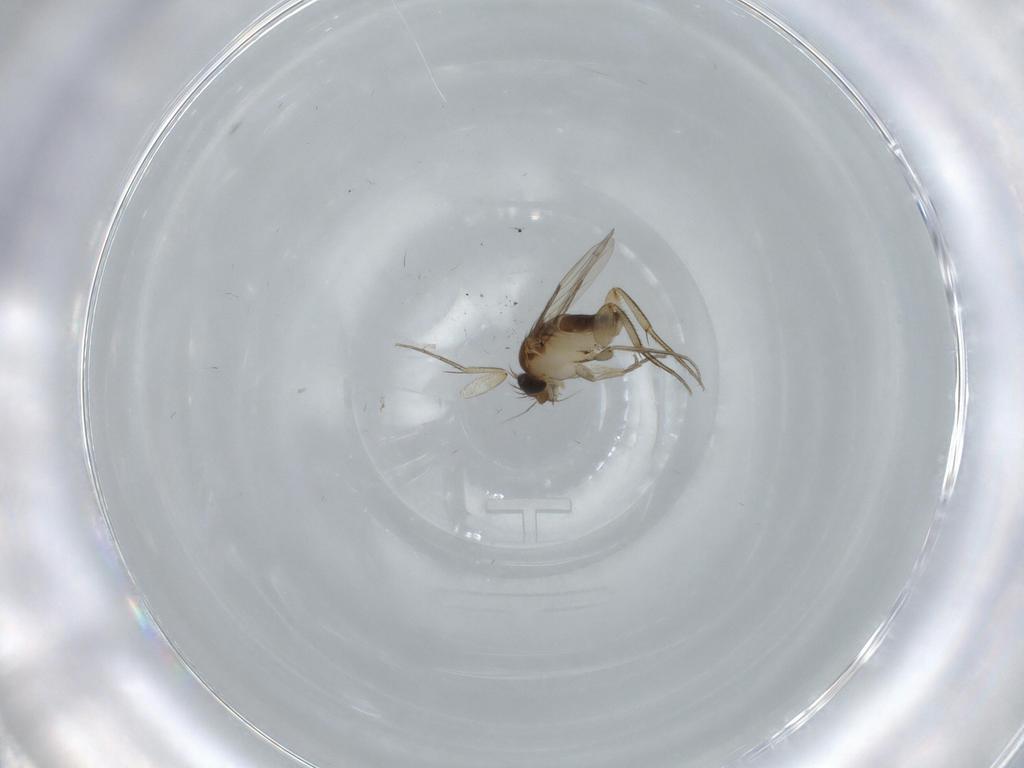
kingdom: Animalia
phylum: Arthropoda
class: Insecta
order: Diptera
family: Phoridae
